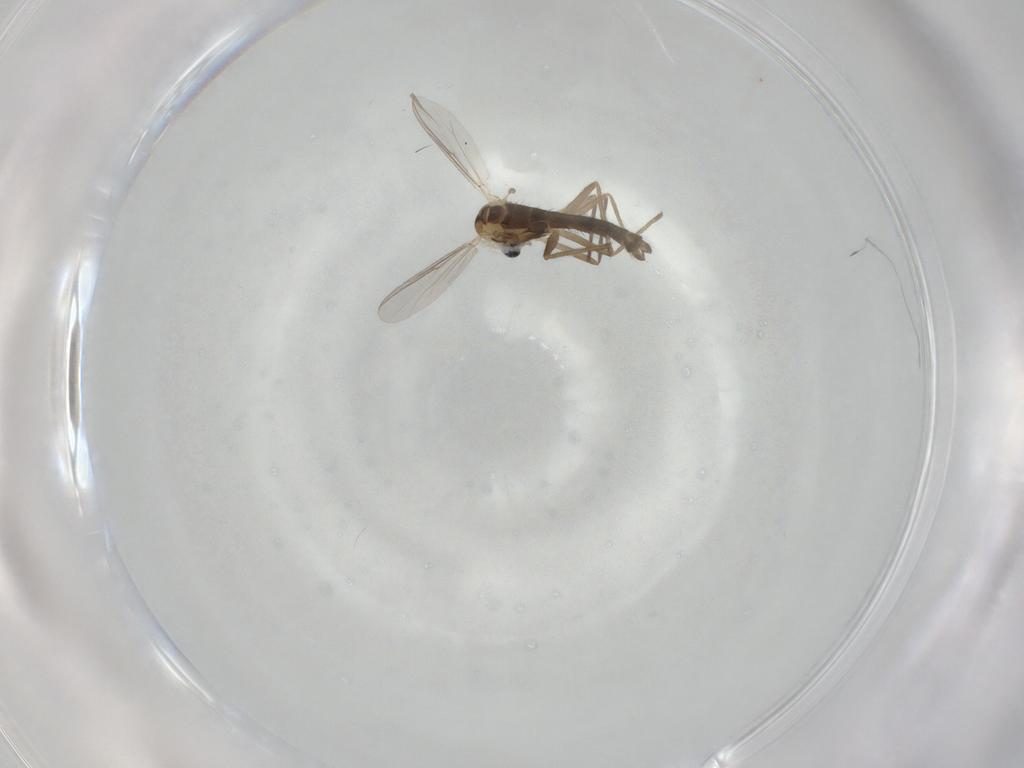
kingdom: Animalia
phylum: Arthropoda
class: Insecta
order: Diptera
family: Chironomidae
